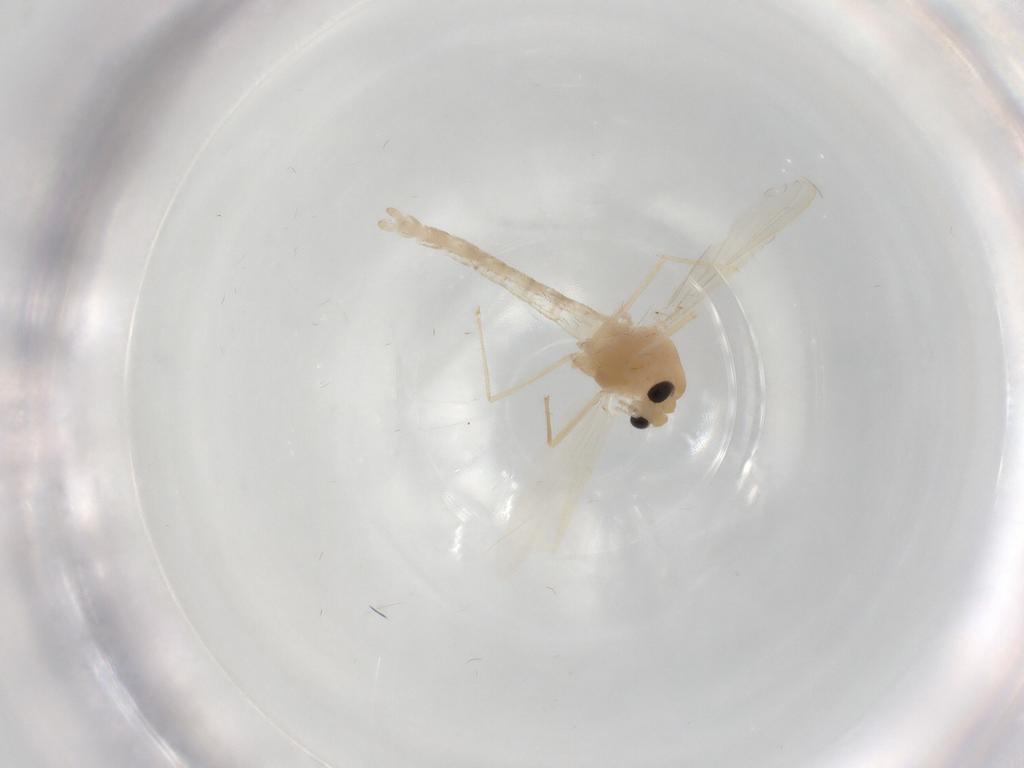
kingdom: Animalia
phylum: Arthropoda
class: Insecta
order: Diptera
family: Chironomidae
